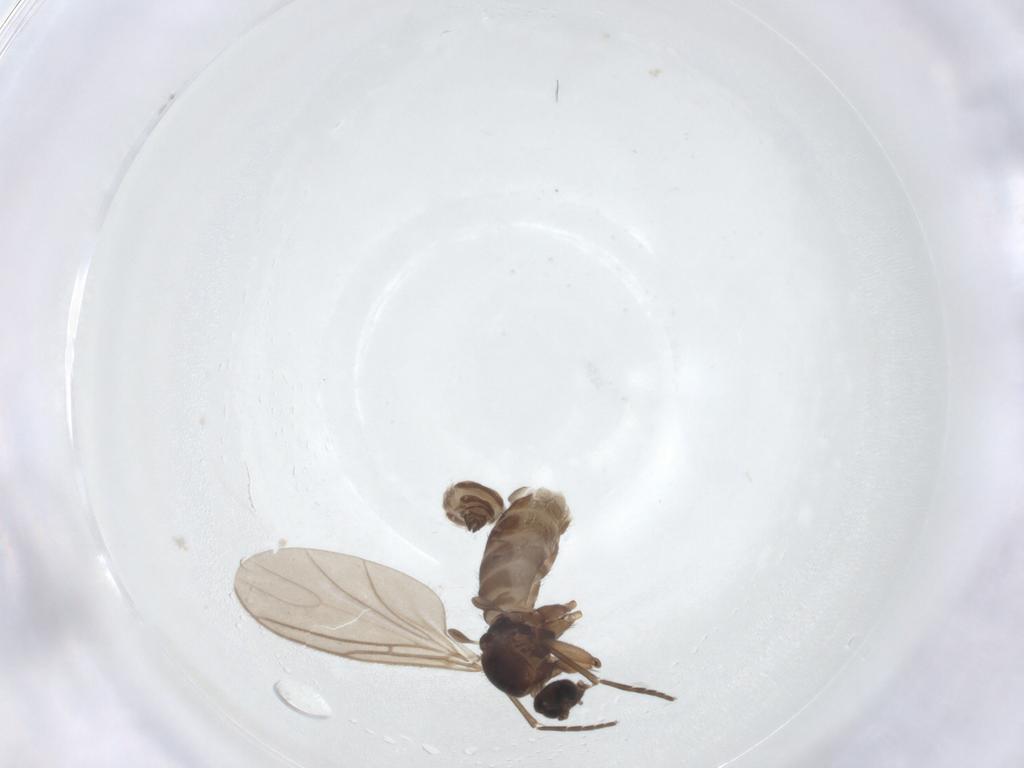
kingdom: Animalia
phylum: Arthropoda
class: Insecta
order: Diptera
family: Sciaridae
